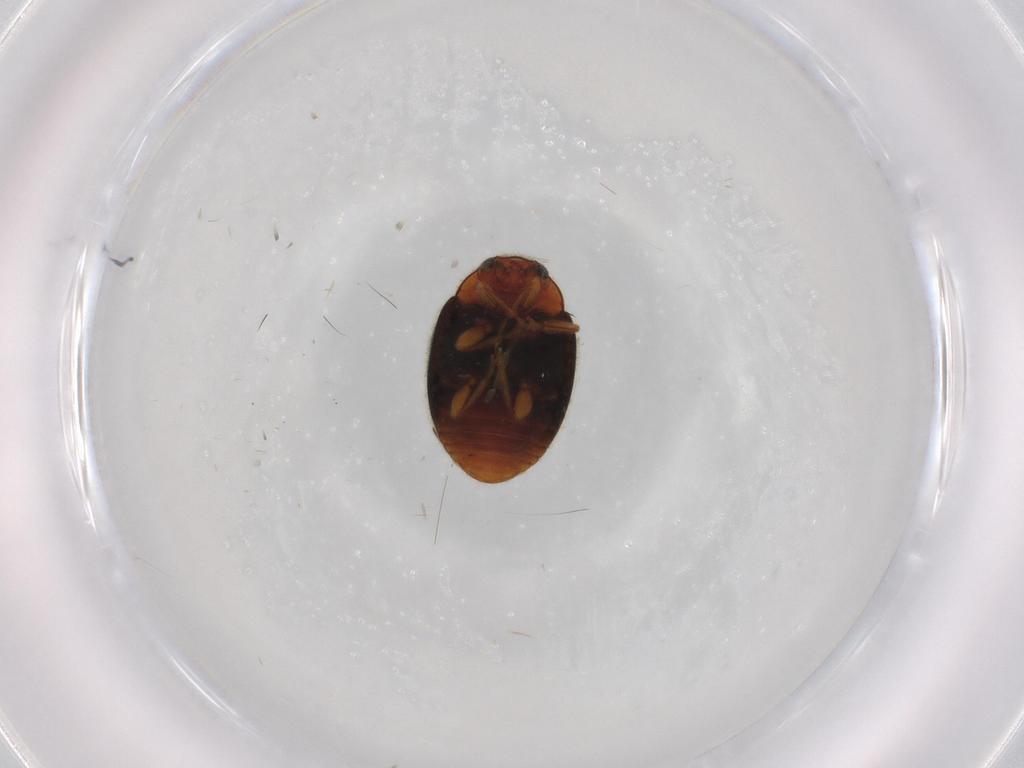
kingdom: Animalia
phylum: Arthropoda
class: Insecta
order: Coleoptera
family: Coccinellidae
